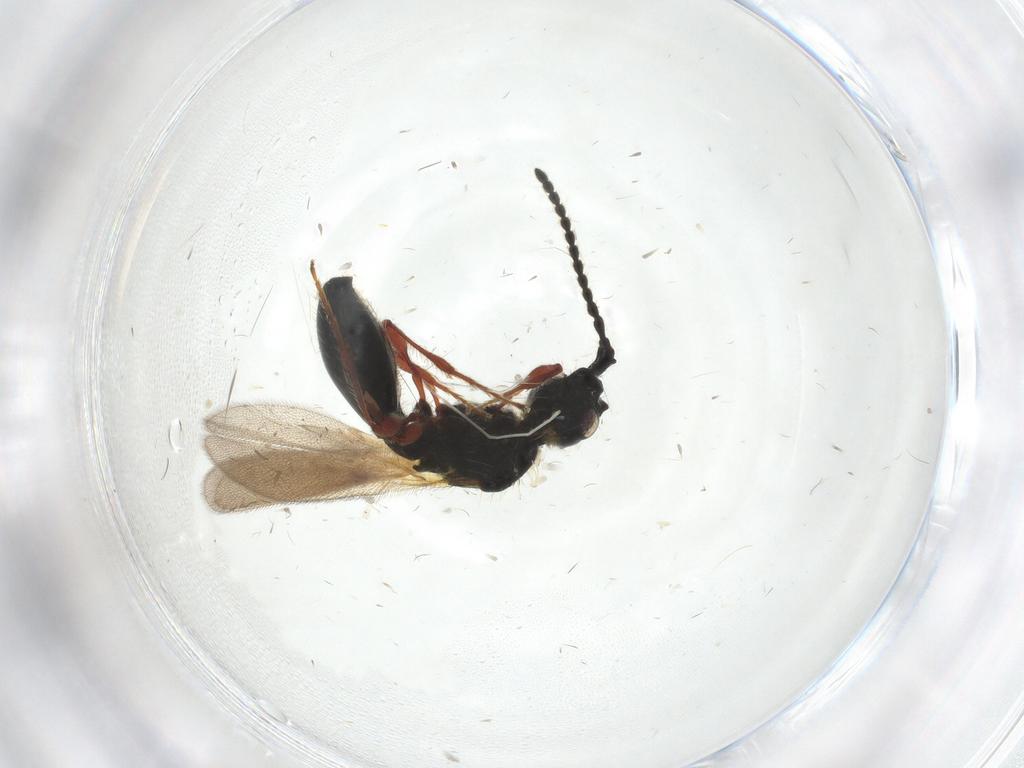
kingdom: Animalia
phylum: Arthropoda
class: Insecta
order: Hymenoptera
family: Diapriidae
